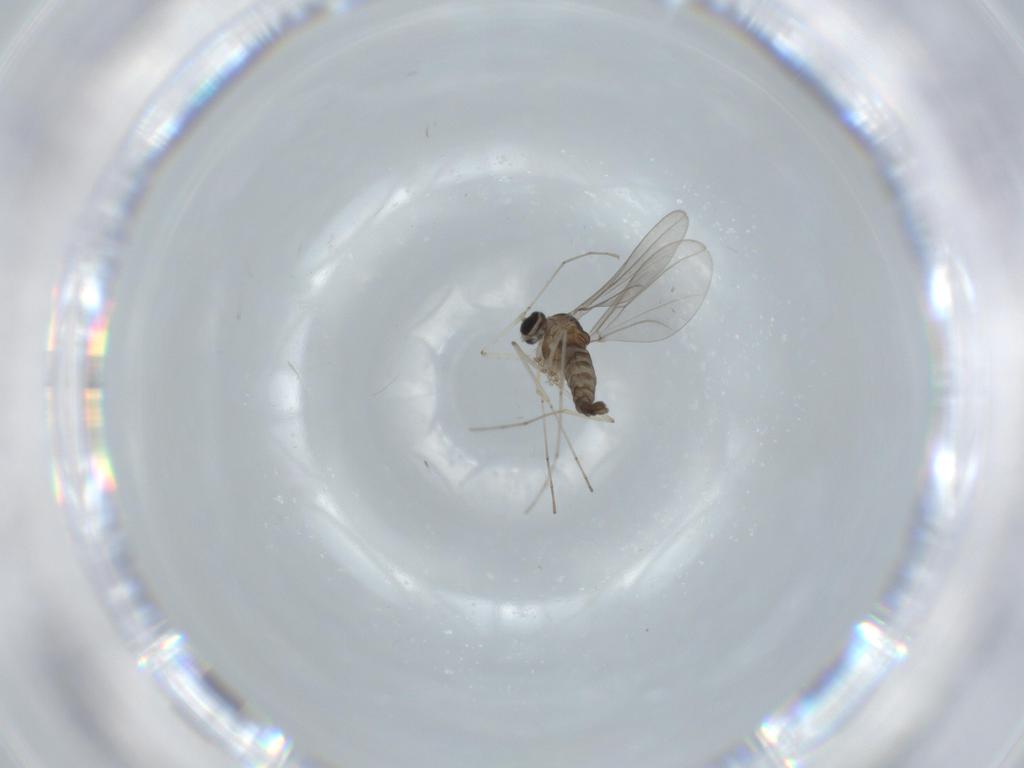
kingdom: Animalia
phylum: Arthropoda
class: Insecta
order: Diptera
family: Cecidomyiidae
